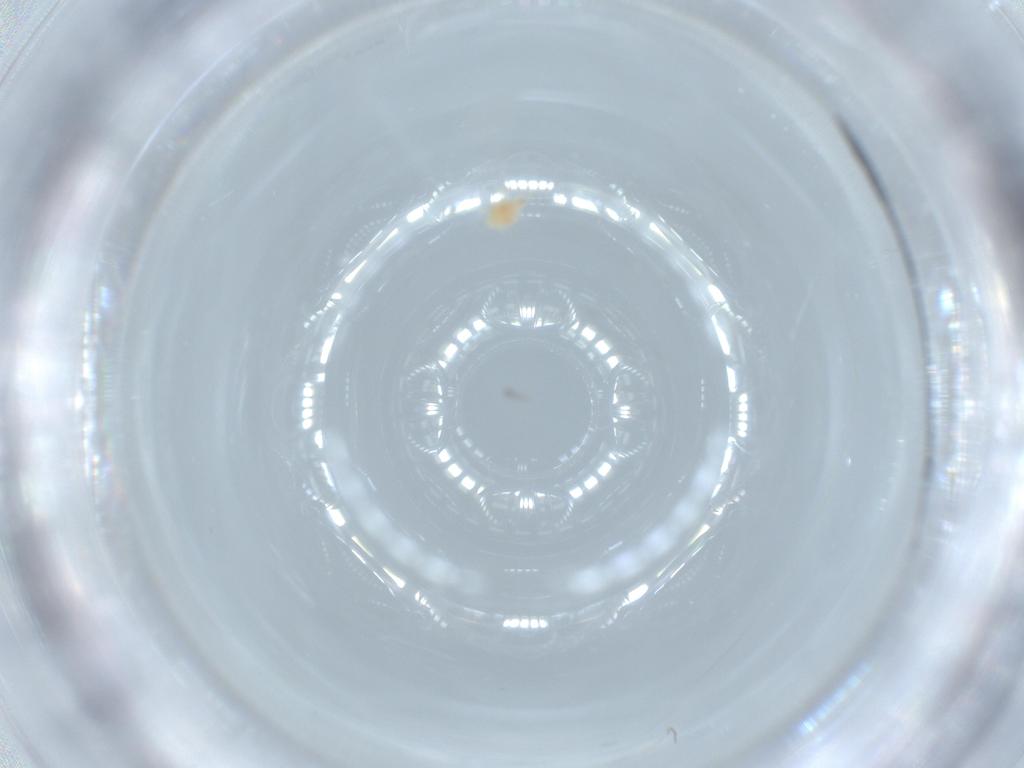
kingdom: Animalia
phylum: Arthropoda
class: Arachnida
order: Trombidiformes
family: Cunaxidae
